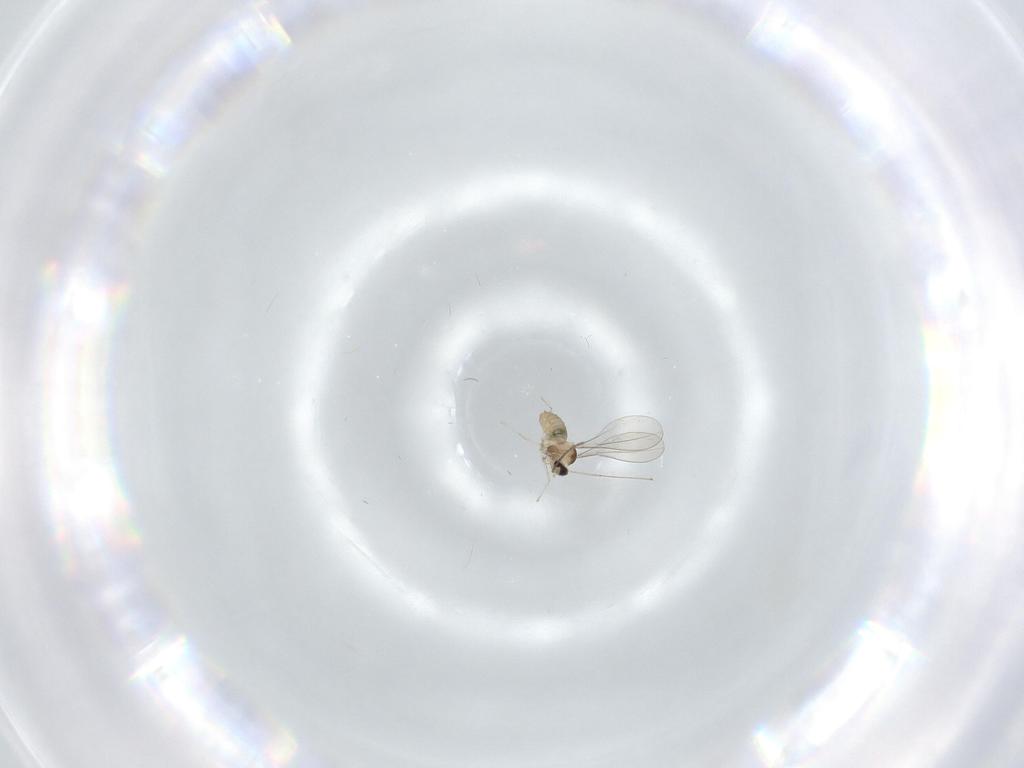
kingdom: Animalia
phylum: Arthropoda
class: Insecta
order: Diptera
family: Cecidomyiidae
